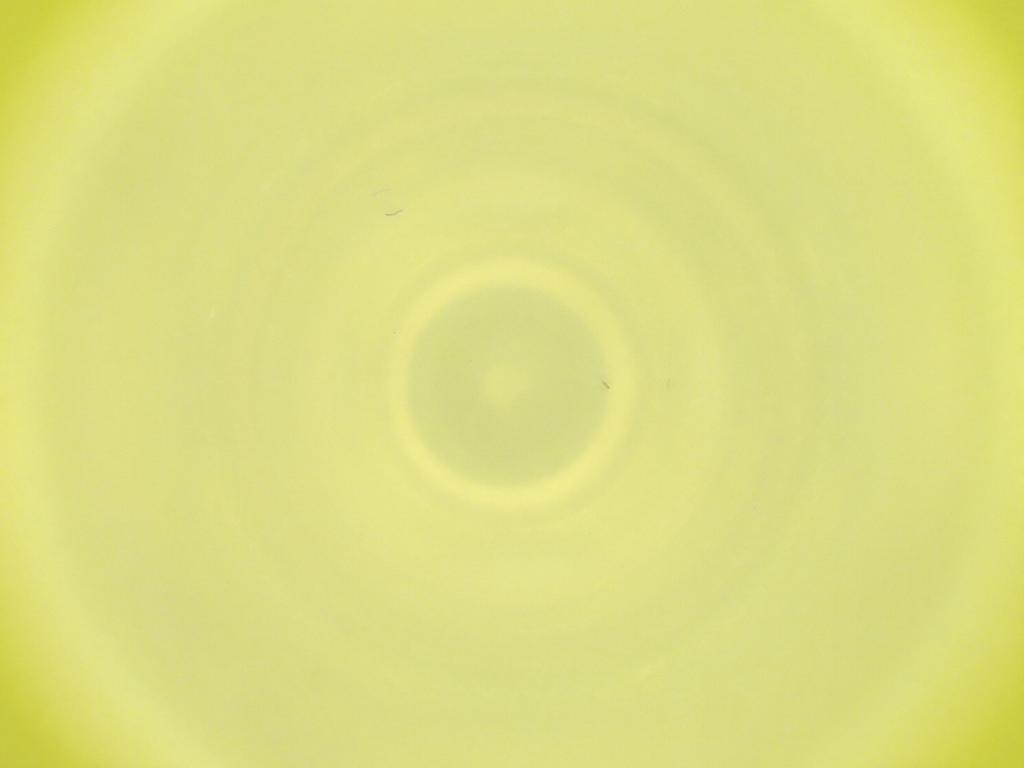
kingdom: Animalia
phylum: Arthropoda
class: Insecta
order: Diptera
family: Cecidomyiidae
